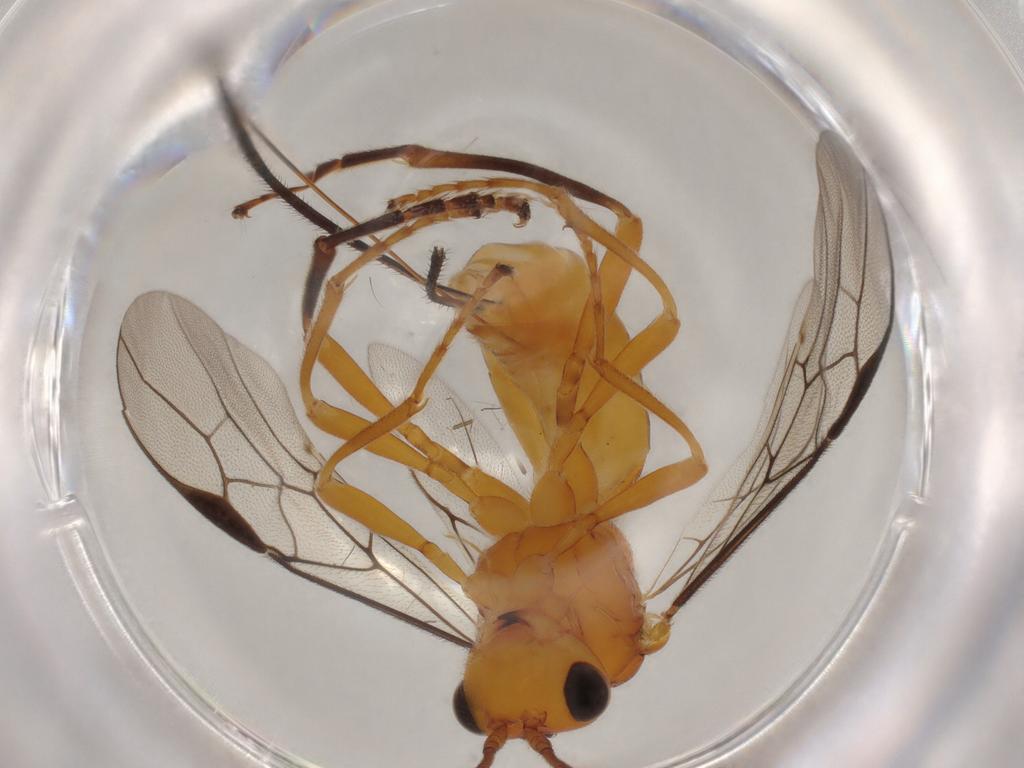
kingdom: Animalia
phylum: Arthropoda
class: Insecta
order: Hymenoptera
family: Braconidae
